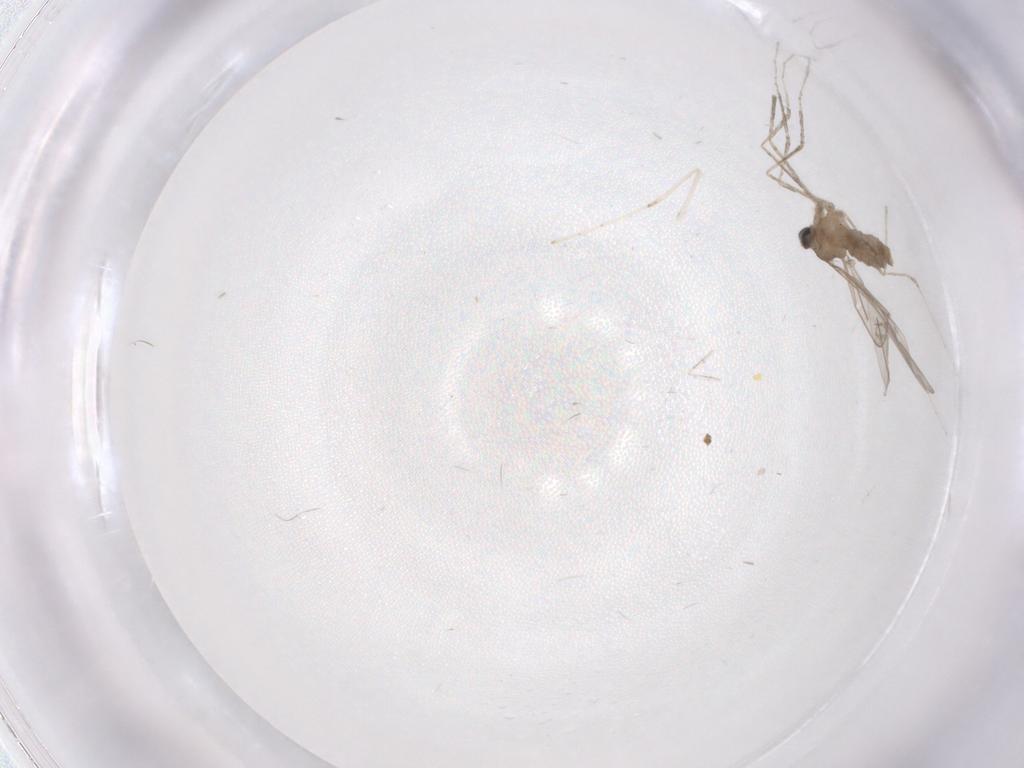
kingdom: Animalia
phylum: Arthropoda
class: Insecta
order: Diptera
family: Cecidomyiidae
